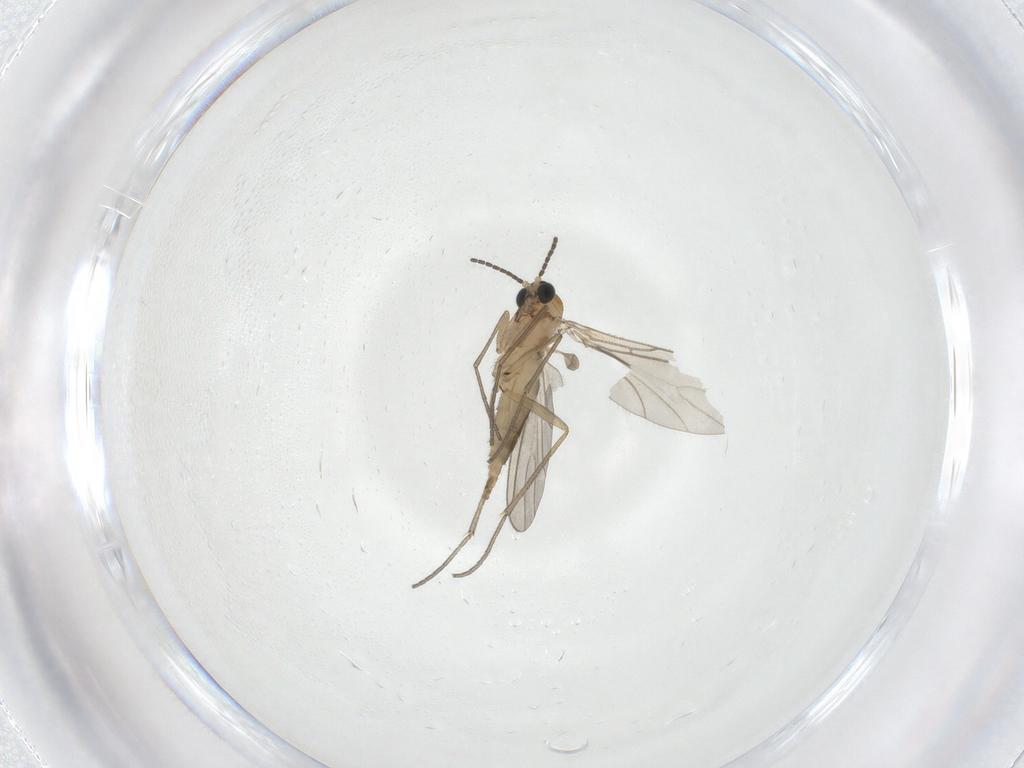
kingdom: Animalia
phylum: Arthropoda
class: Insecta
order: Diptera
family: Sciaridae
